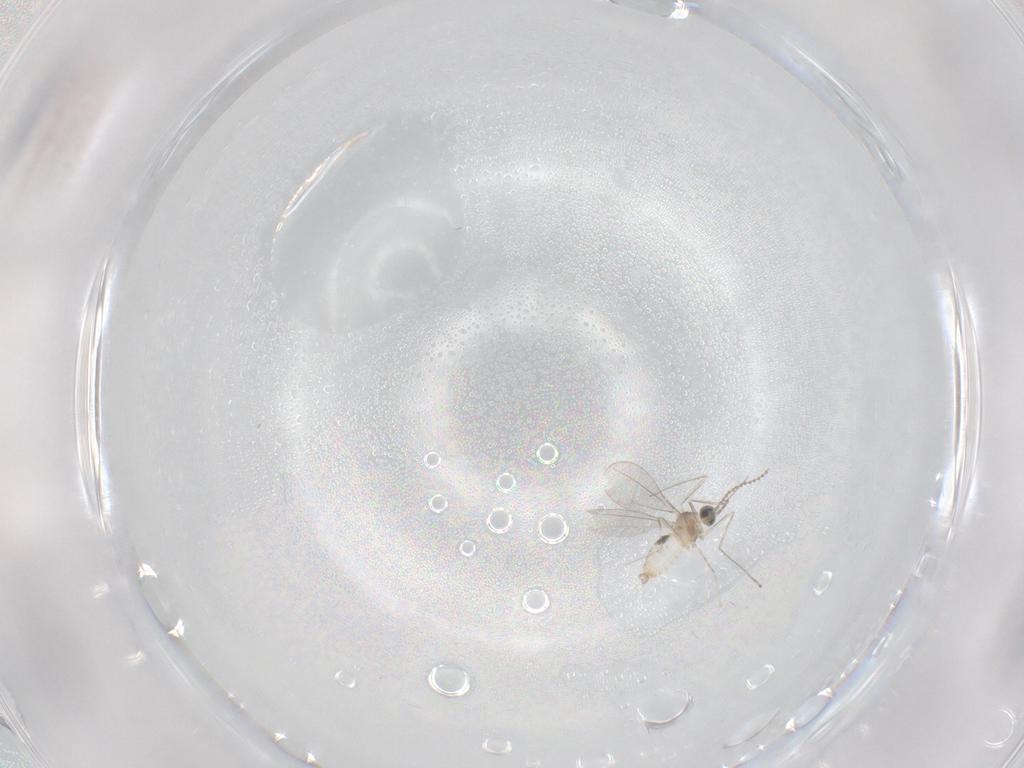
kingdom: Animalia
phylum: Arthropoda
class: Insecta
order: Diptera
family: Cecidomyiidae
